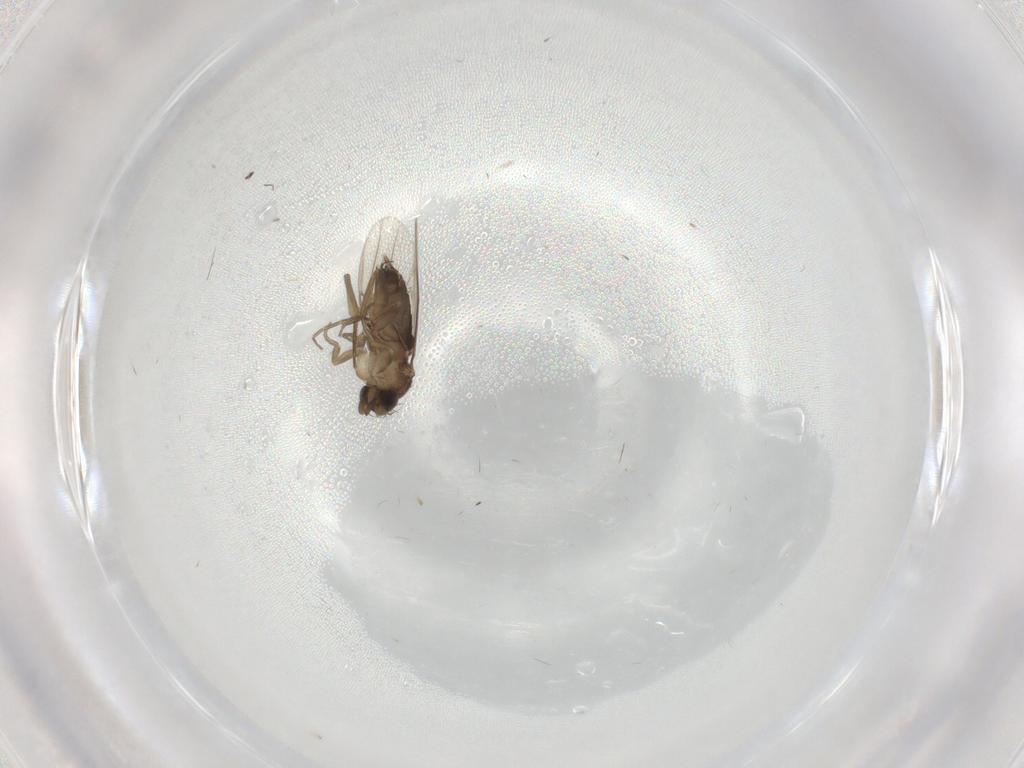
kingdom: Animalia
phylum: Arthropoda
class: Insecta
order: Diptera
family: Phoridae
